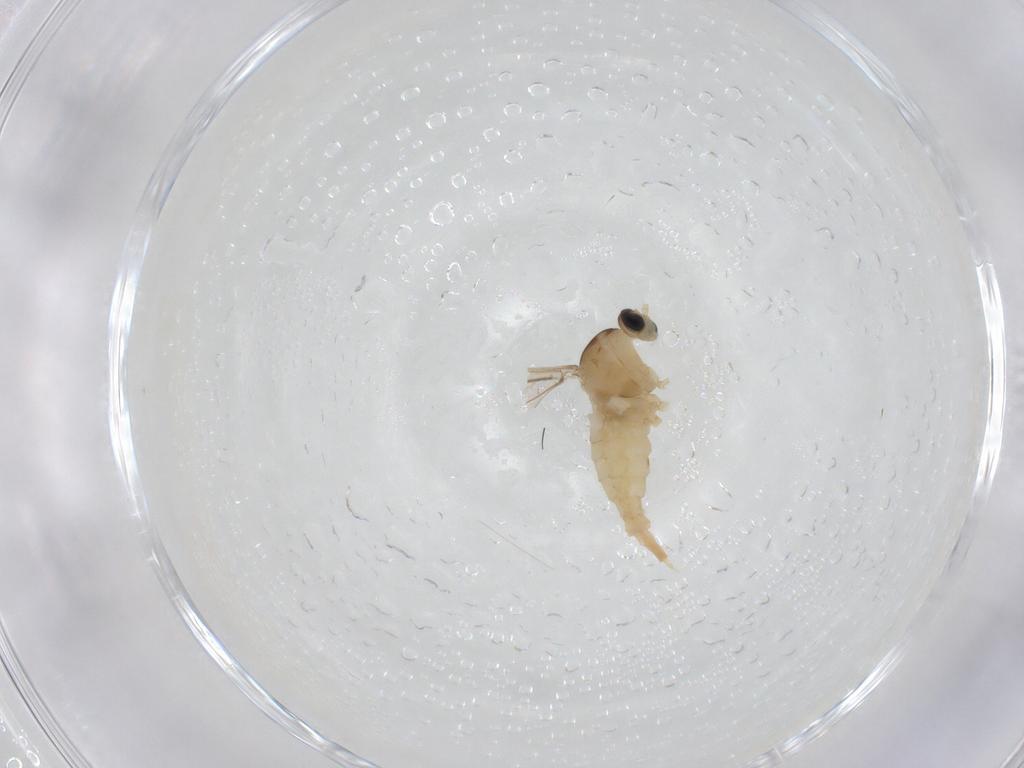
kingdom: Animalia
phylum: Arthropoda
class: Insecta
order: Diptera
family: Cecidomyiidae
